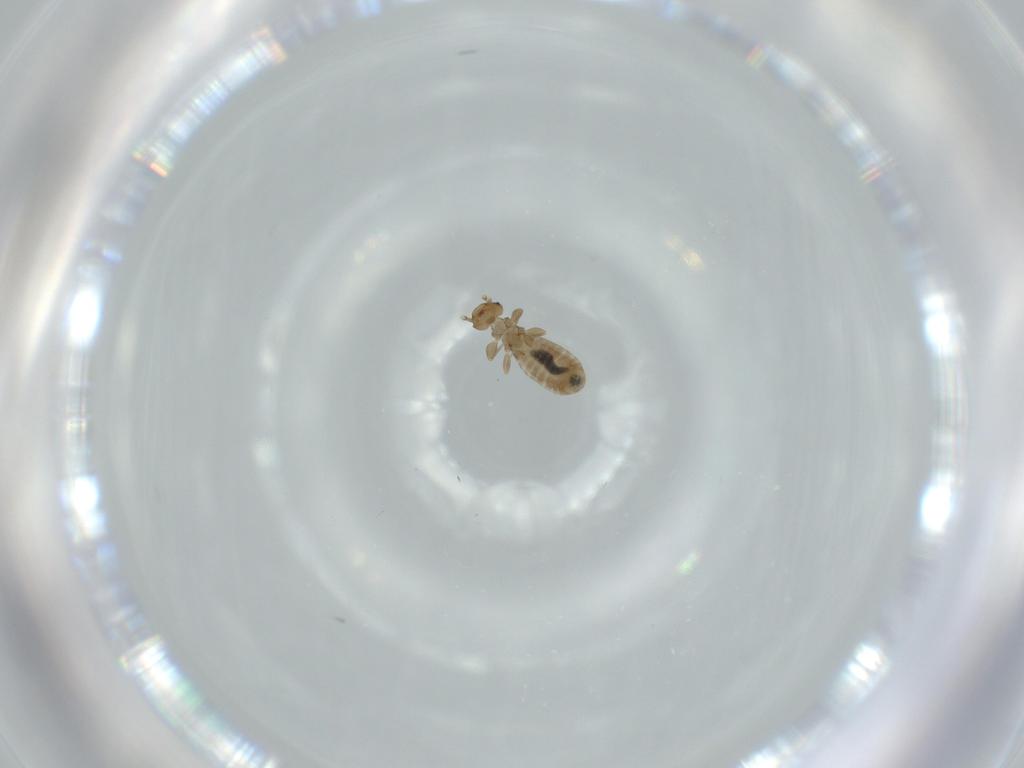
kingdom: Animalia
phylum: Arthropoda
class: Insecta
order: Psocodea
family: Liposcelididae
